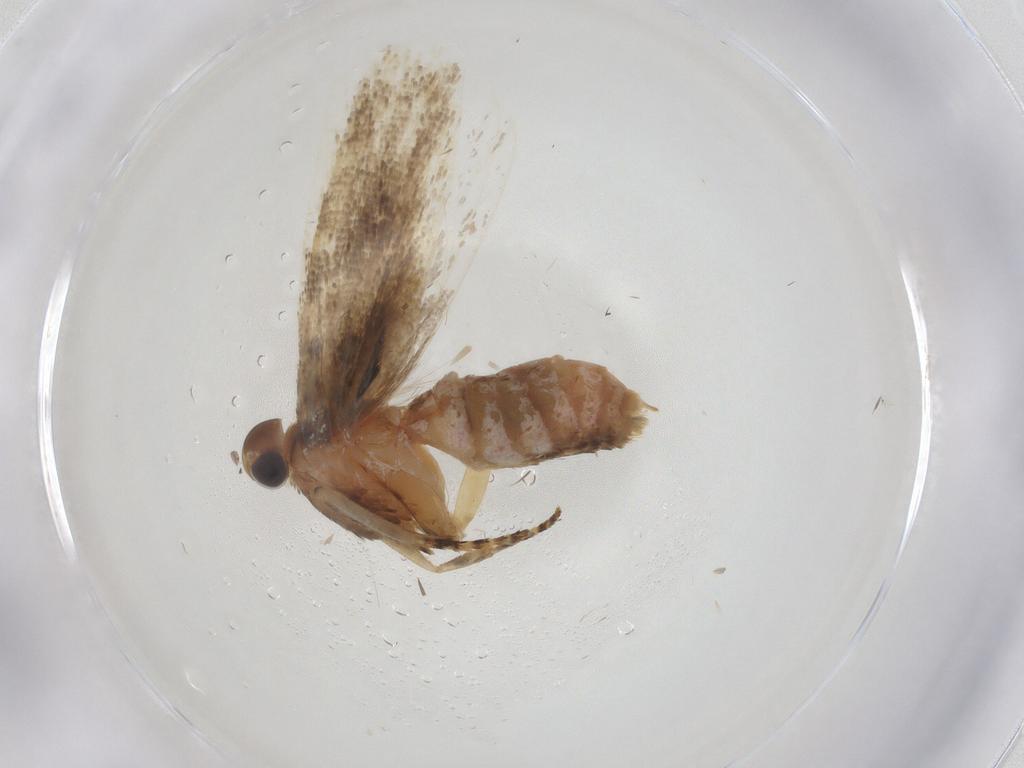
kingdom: Animalia
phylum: Arthropoda
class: Insecta
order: Lepidoptera
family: Gelechiidae
